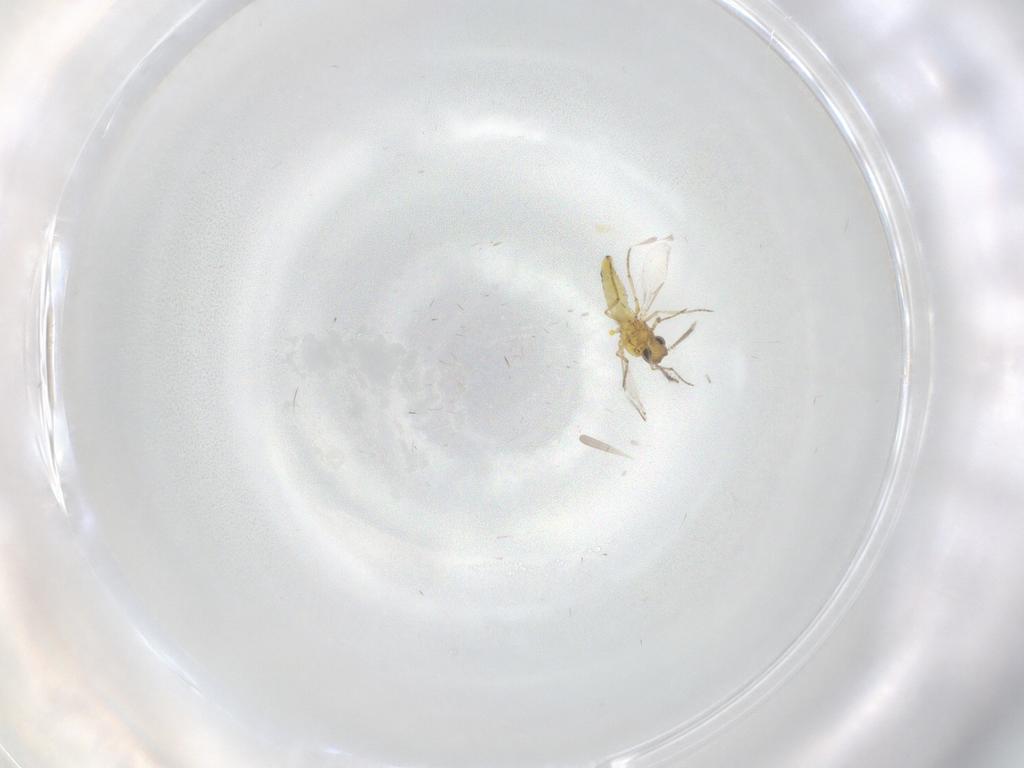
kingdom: Animalia
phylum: Arthropoda
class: Insecta
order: Diptera
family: Ceratopogonidae
